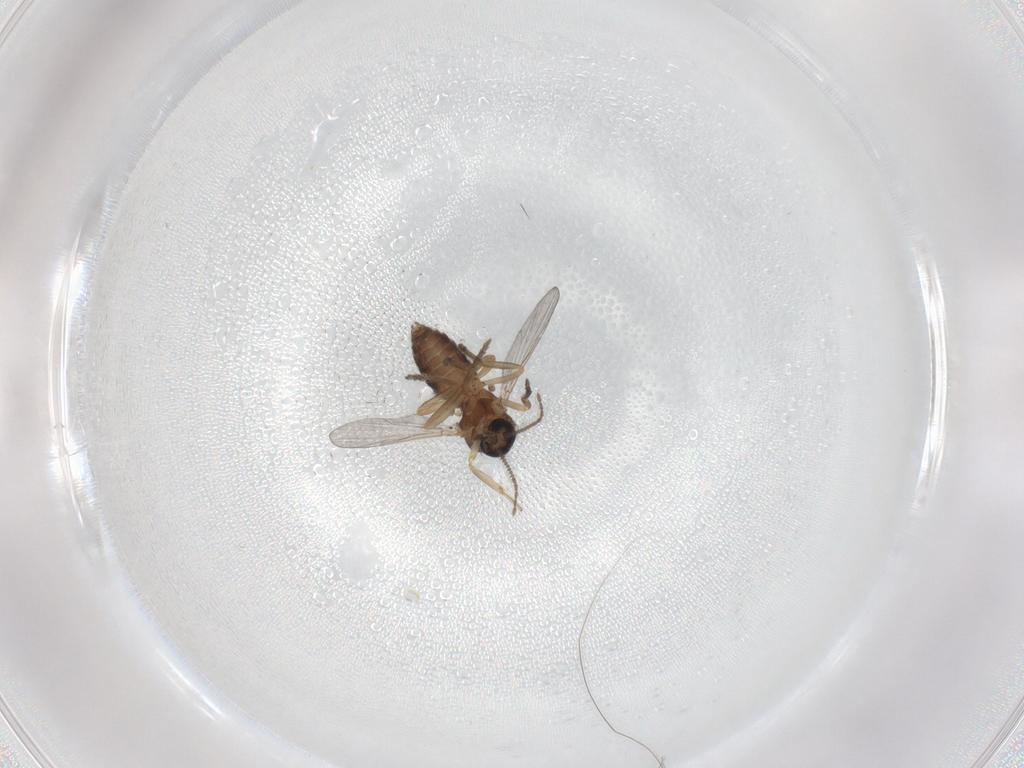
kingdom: Animalia
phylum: Arthropoda
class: Insecta
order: Diptera
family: Ceratopogonidae
